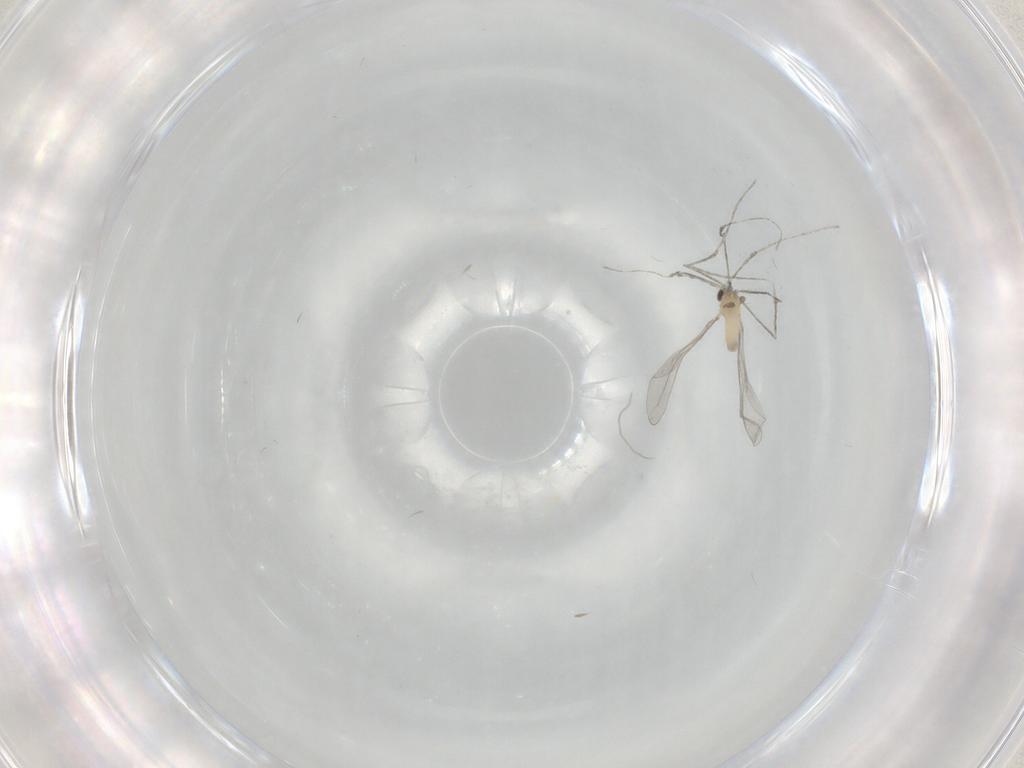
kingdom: Animalia
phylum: Arthropoda
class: Insecta
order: Diptera
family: Cecidomyiidae
